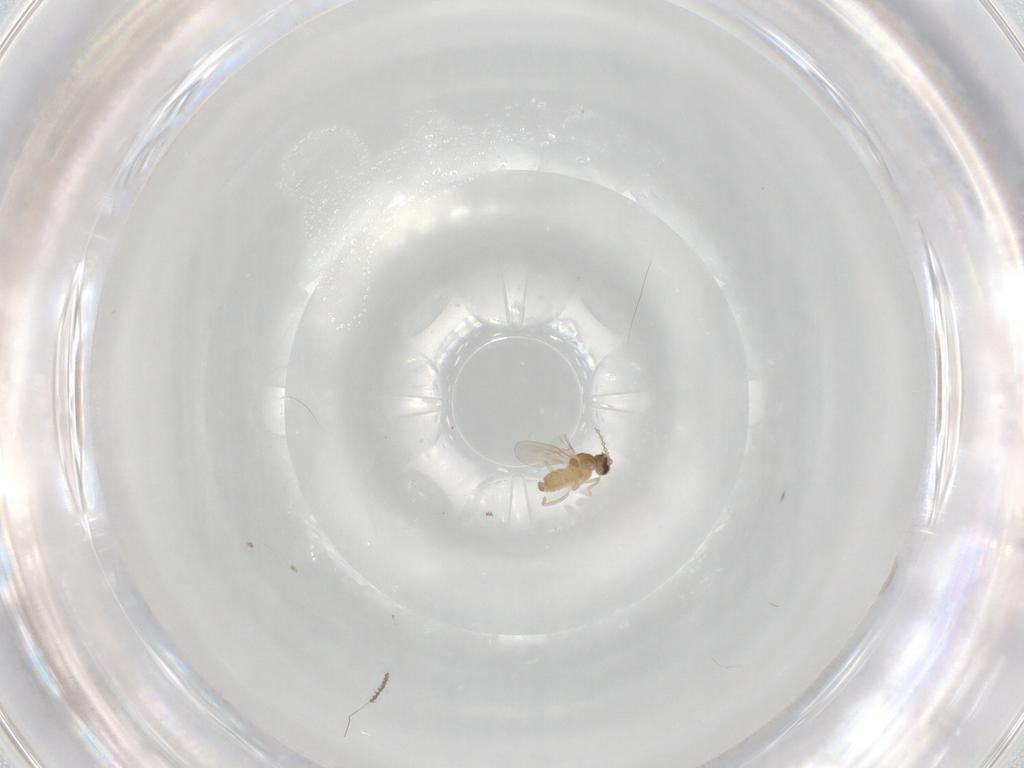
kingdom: Animalia
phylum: Arthropoda
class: Insecta
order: Diptera
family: Cecidomyiidae
